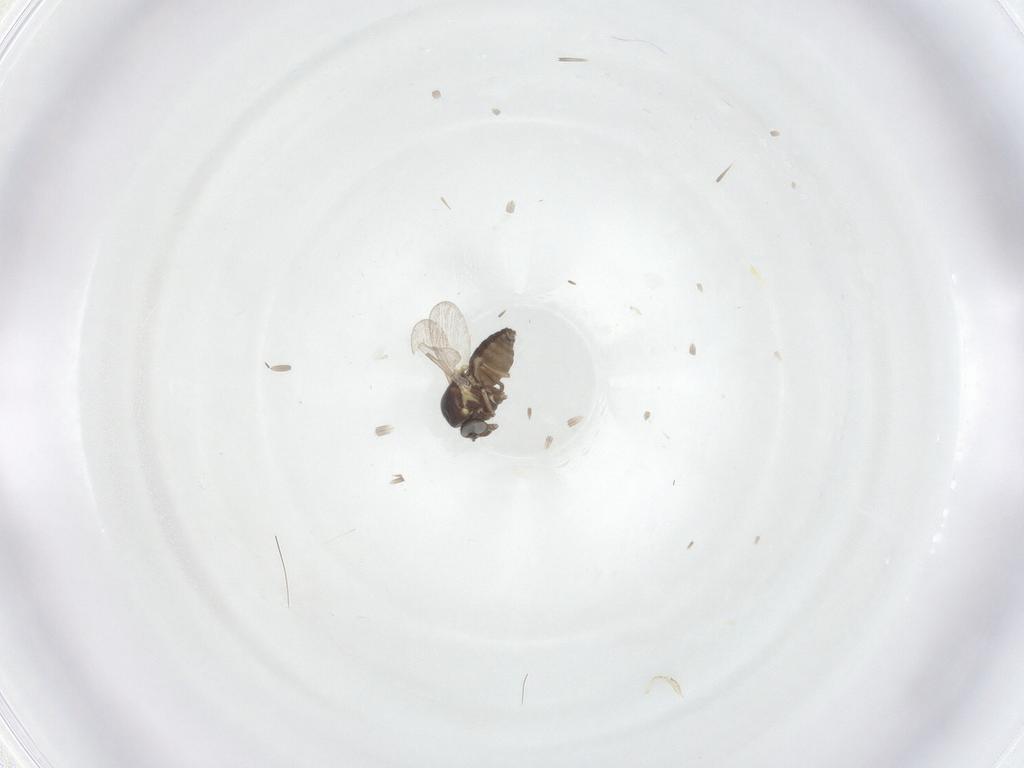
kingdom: Animalia
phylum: Arthropoda
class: Insecta
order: Diptera
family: Ceratopogonidae
